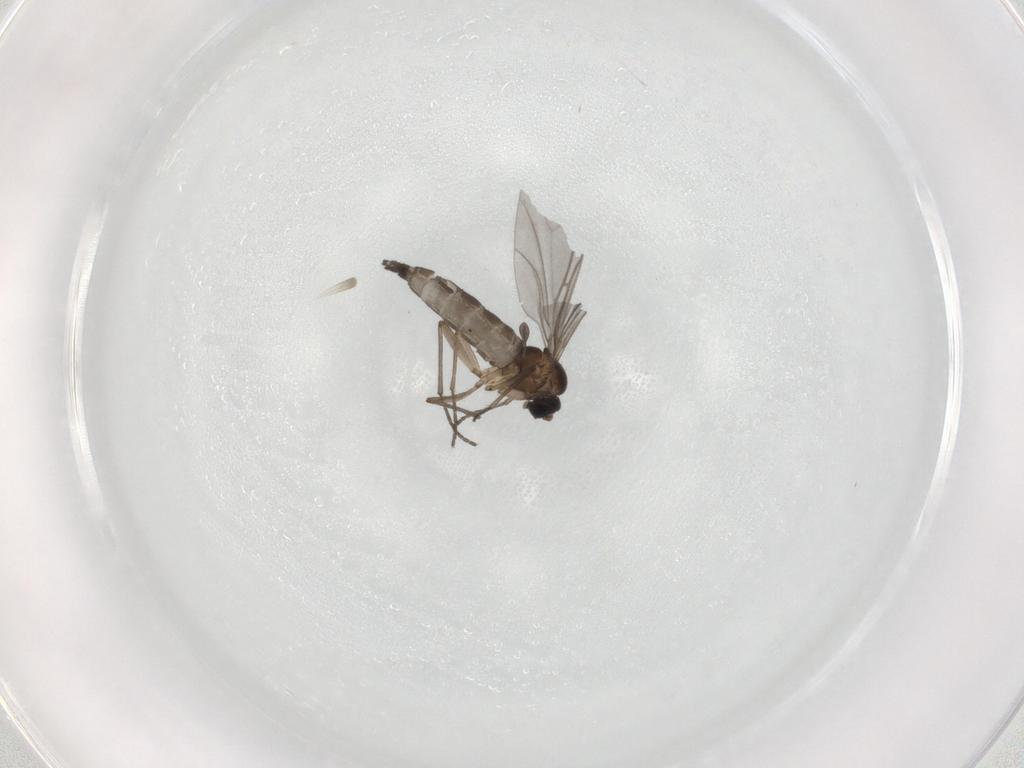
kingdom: Animalia
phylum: Arthropoda
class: Insecta
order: Diptera
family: Sciaridae
